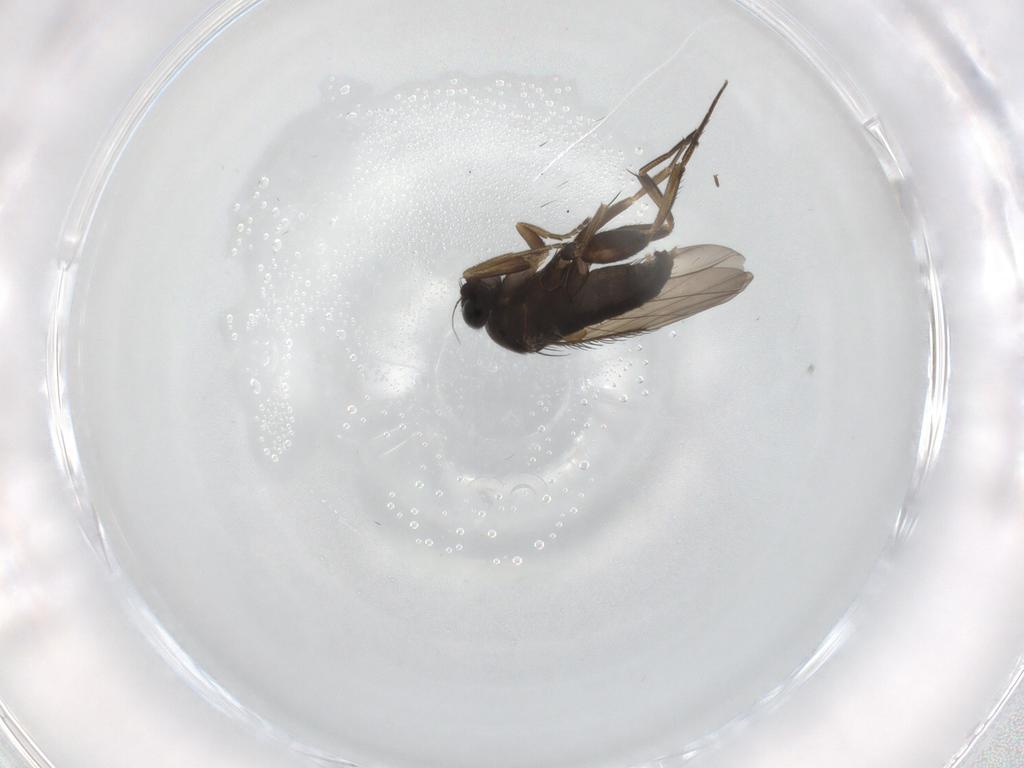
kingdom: Animalia
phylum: Arthropoda
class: Insecta
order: Diptera
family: Phoridae
